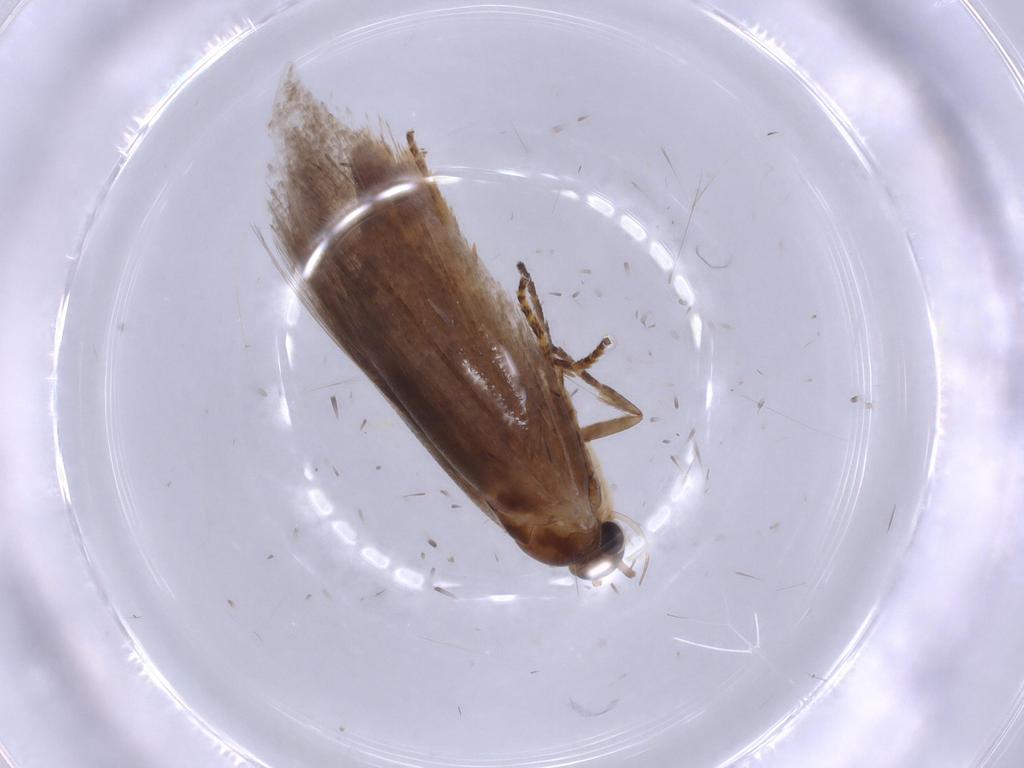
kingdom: Animalia
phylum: Arthropoda
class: Insecta
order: Lepidoptera
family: Oecophoridae
